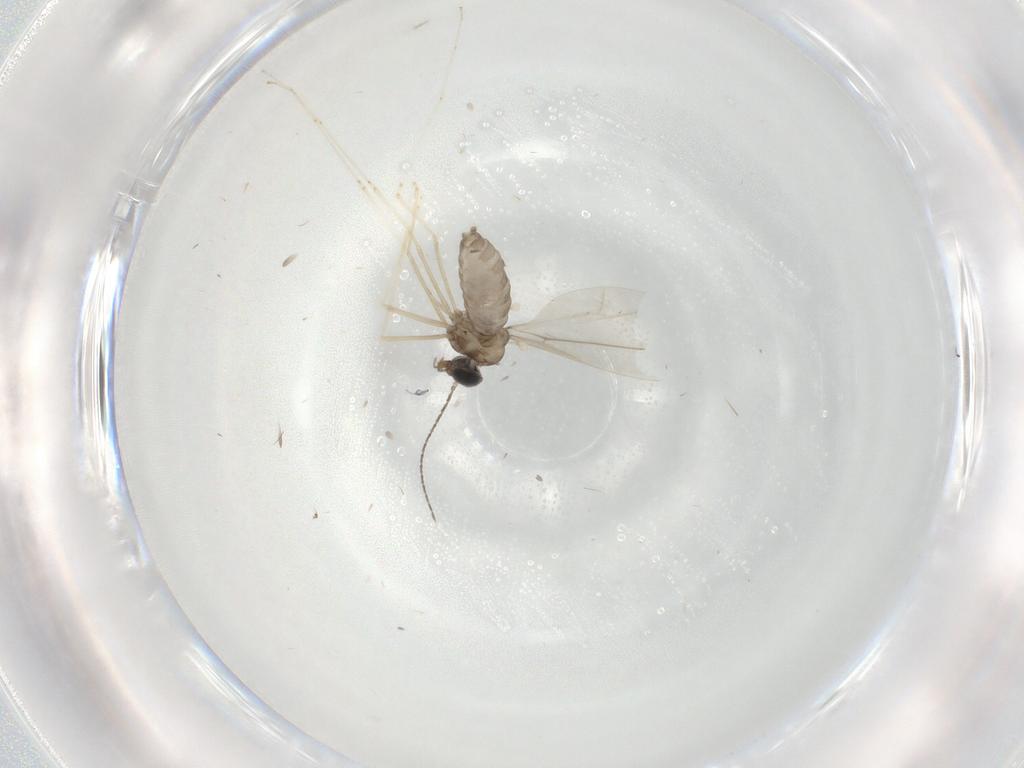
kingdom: Animalia
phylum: Arthropoda
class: Insecta
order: Diptera
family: Cecidomyiidae
